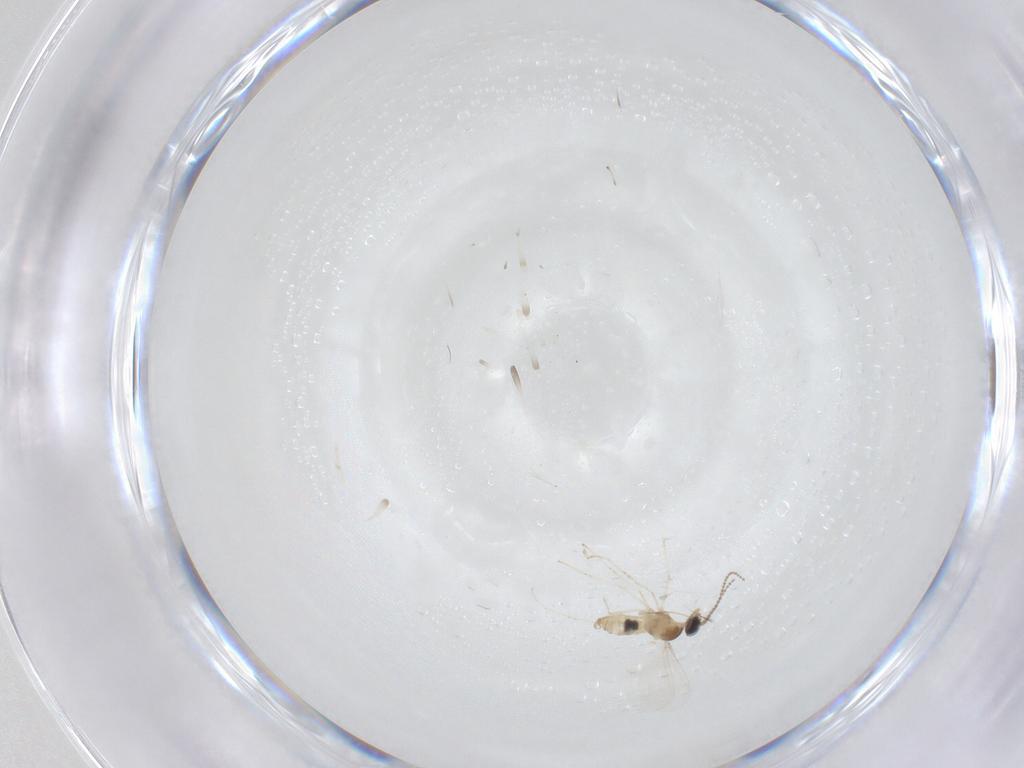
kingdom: Animalia
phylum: Arthropoda
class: Insecta
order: Diptera
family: Cecidomyiidae
